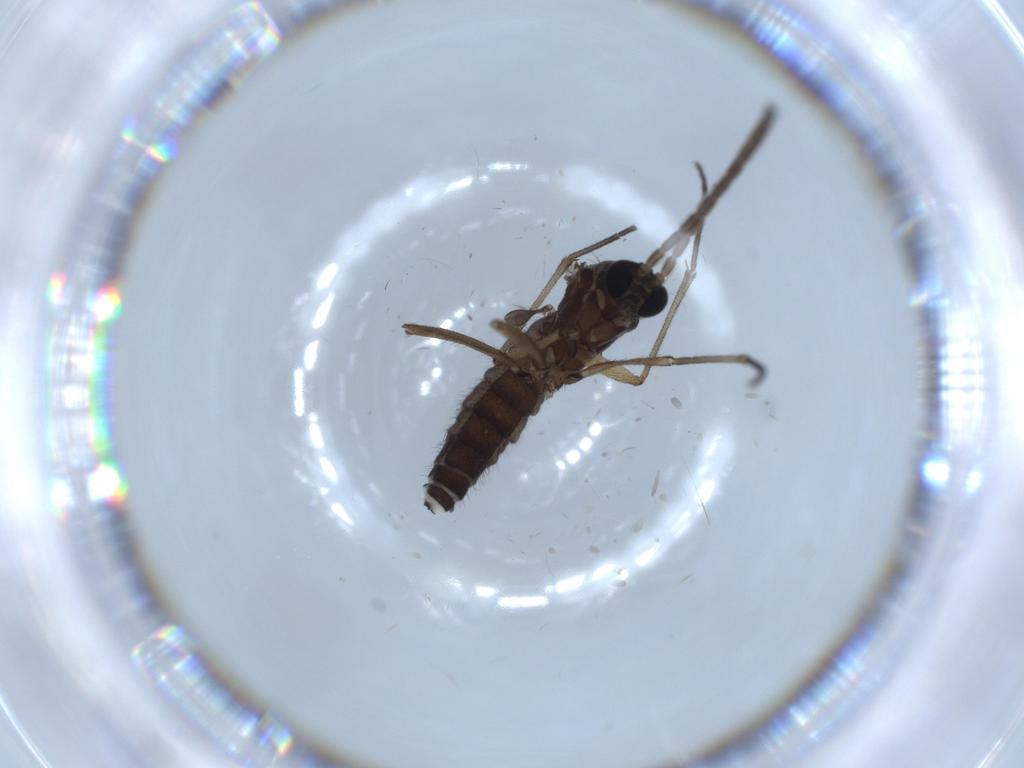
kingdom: Animalia
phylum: Arthropoda
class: Insecta
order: Diptera
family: Sciaridae
